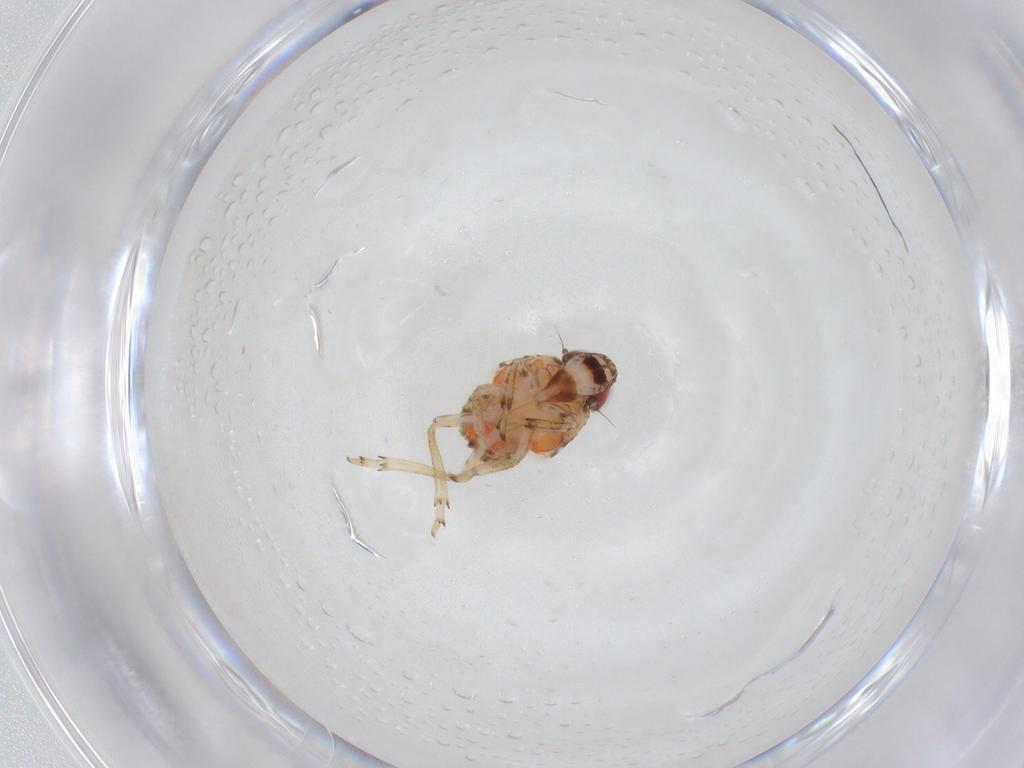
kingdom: Animalia
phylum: Arthropoda
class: Insecta
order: Hemiptera
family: Issidae
